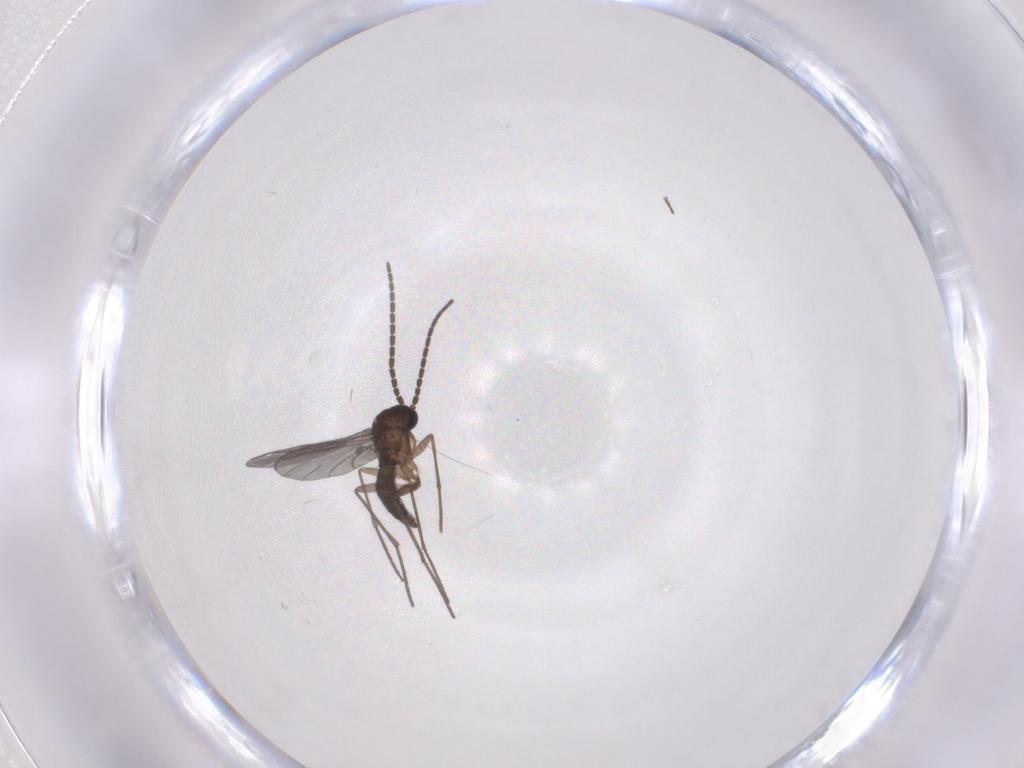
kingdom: Animalia
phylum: Arthropoda
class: Insecta
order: Diptera
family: Sciaridae
